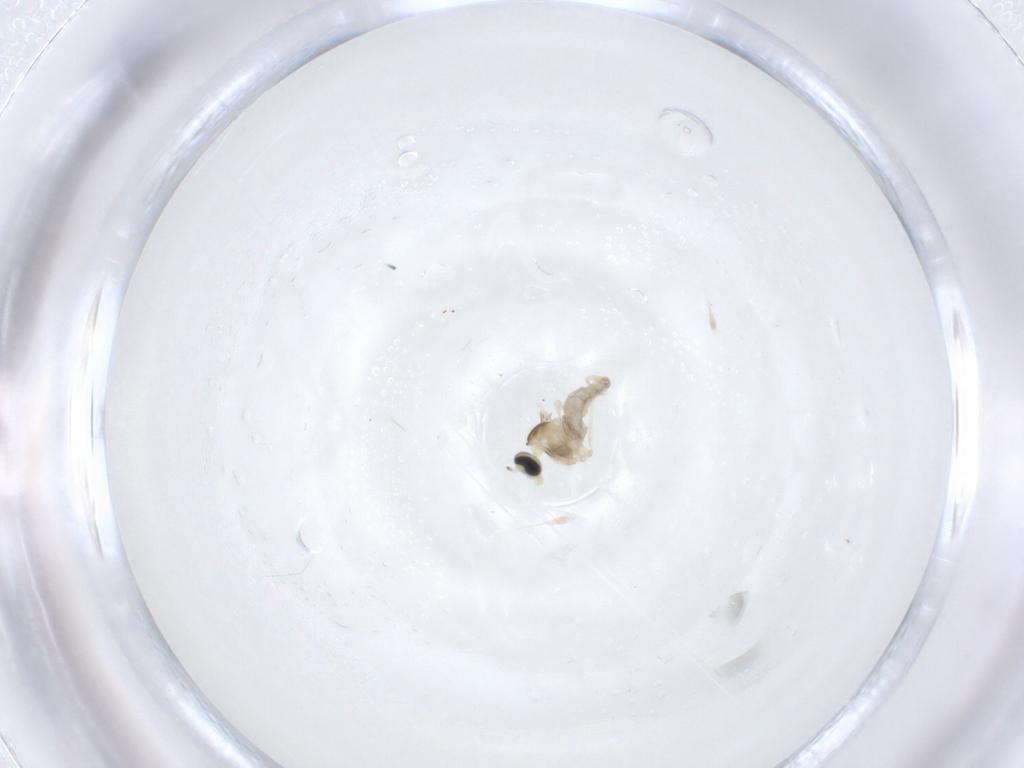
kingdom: Animalia
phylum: Arthropoda
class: Insecta
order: Diptera
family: Cecidomyiidae
